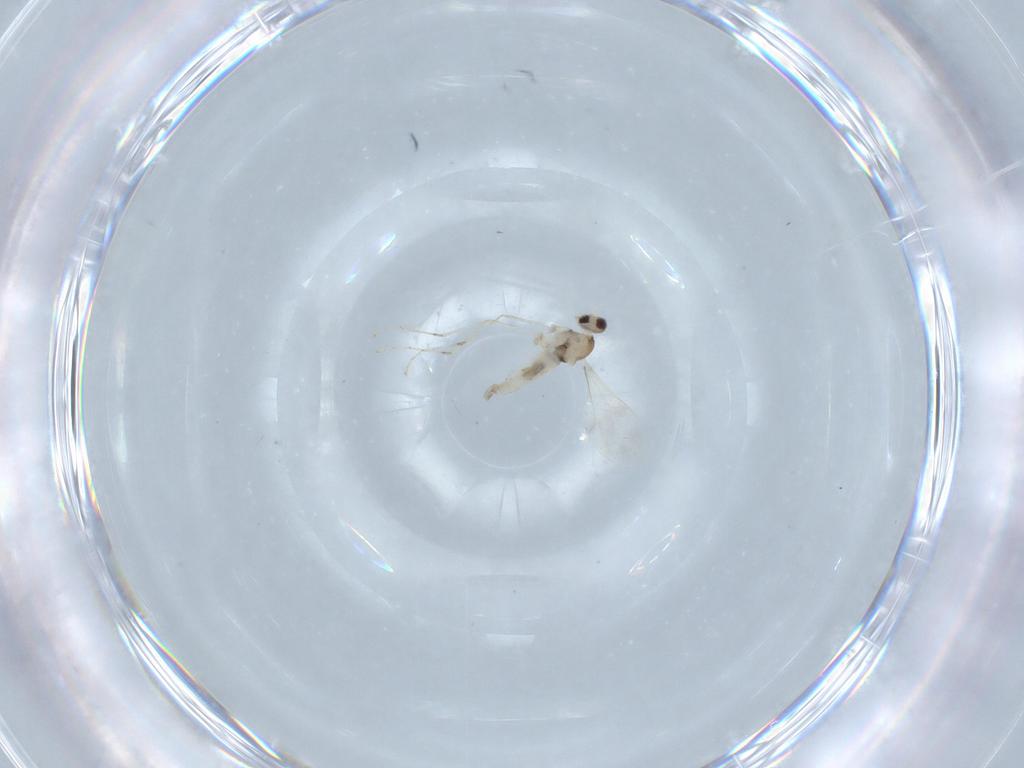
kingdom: Animalia
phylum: Arthropoda
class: Insecta
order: Diptera
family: Cecidomyiidae
